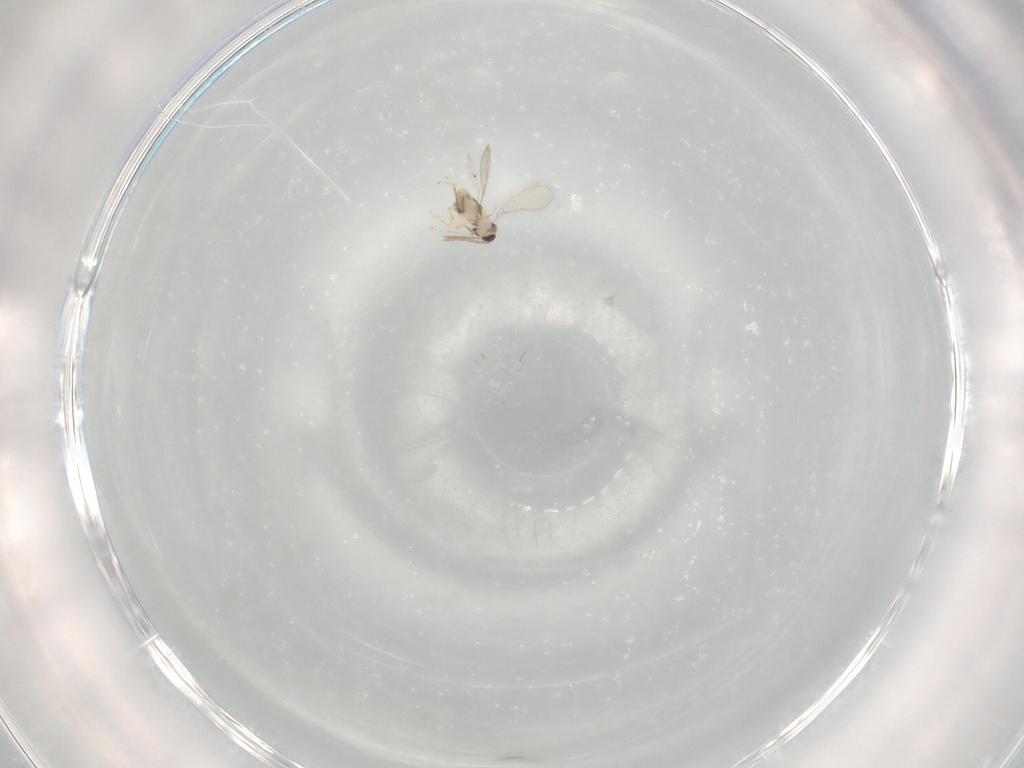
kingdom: Animalia
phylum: Arthropoda
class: Insecta
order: Hymenoptera
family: Aphelinidae
